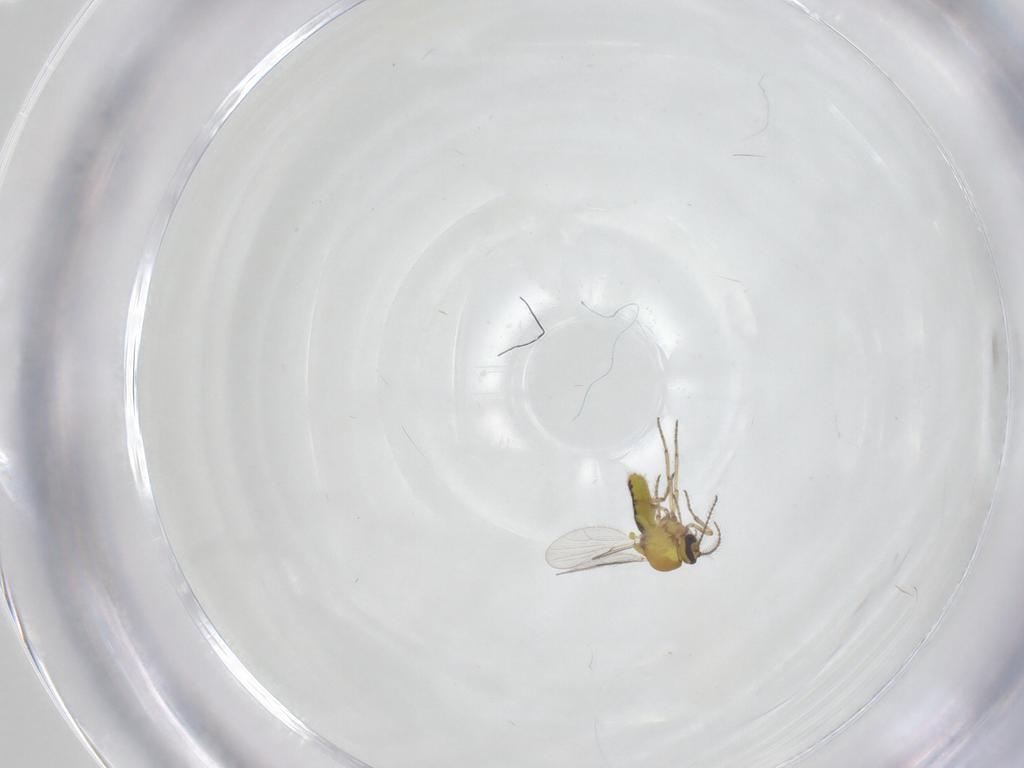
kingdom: Animalia
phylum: Arthropoda
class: Insecta
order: Diptera
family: Ceratopogonidae
